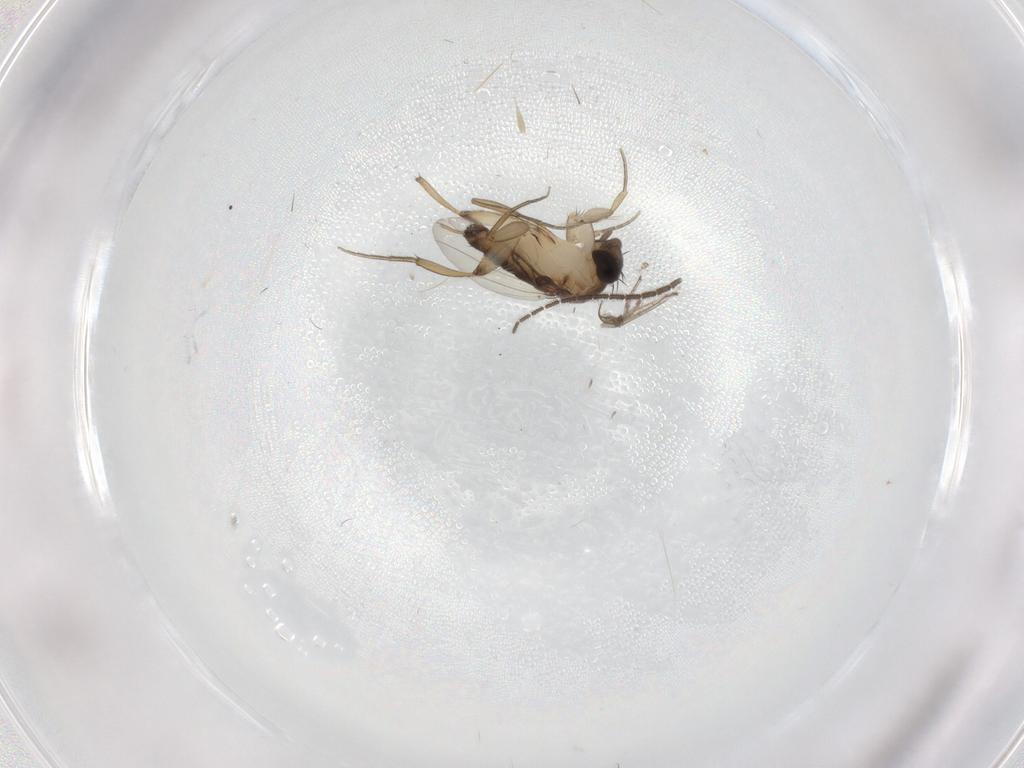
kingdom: Animalia
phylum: Arthropoda
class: Insecta
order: Diptera
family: Phoridae
